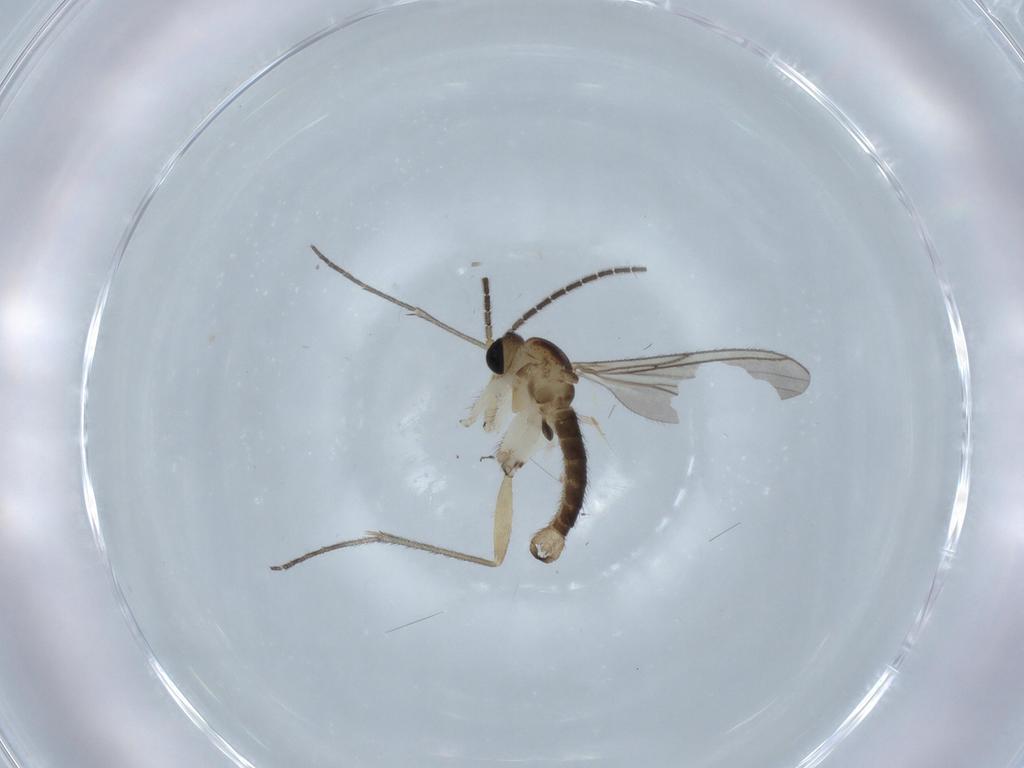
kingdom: Animalia
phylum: Arthropoda
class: Insecta
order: Diptera
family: Sciaridae
